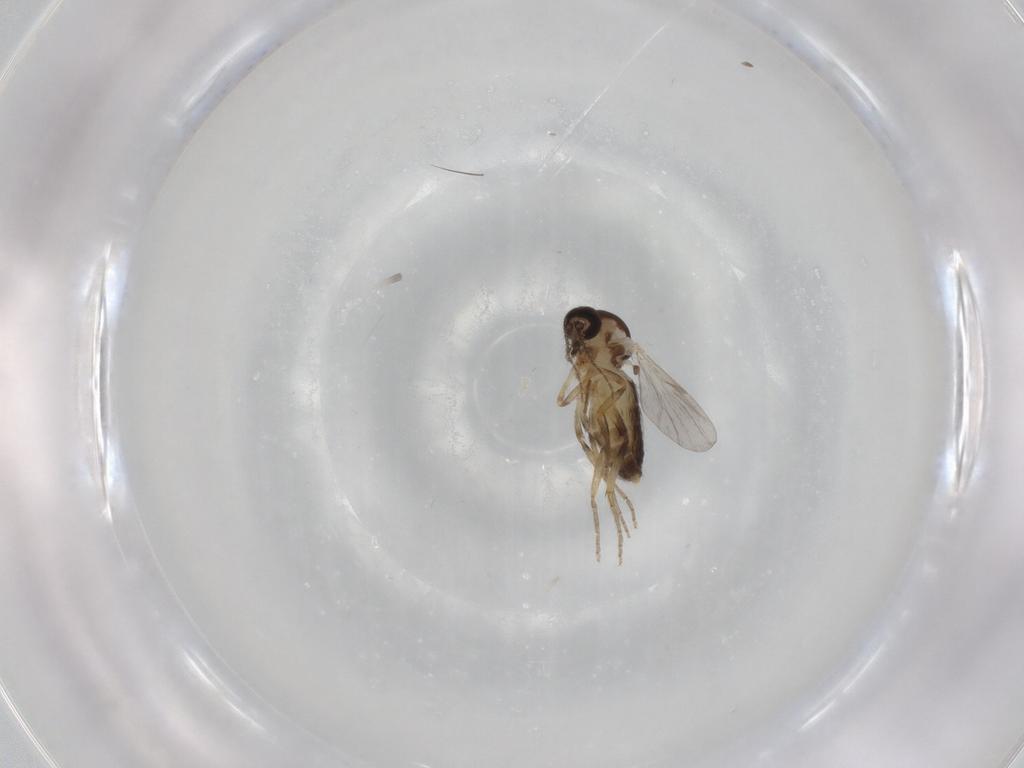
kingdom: Animalia
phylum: Arthropoda
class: Insecta
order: Diptera
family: Ceratopogonidae
